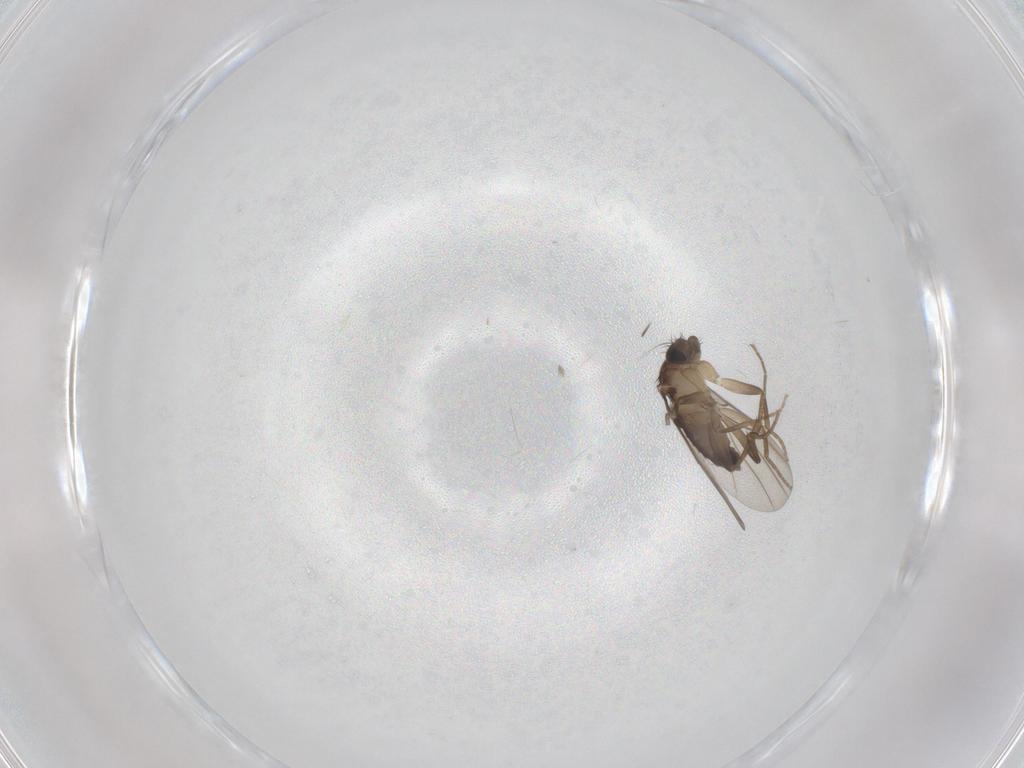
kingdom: Animalia
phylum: Arthropoda
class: Insecta
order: Diptera
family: Phoridae
